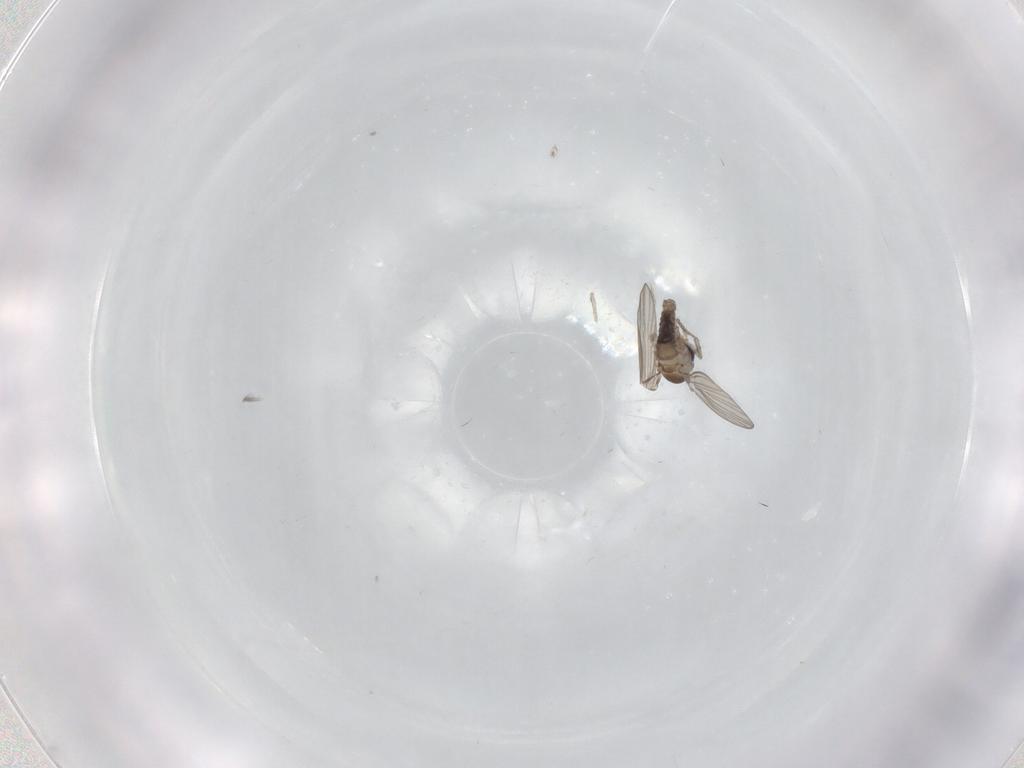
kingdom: Animalia
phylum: Arthropoda
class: Insecta
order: Diptera
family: Psychodidae
